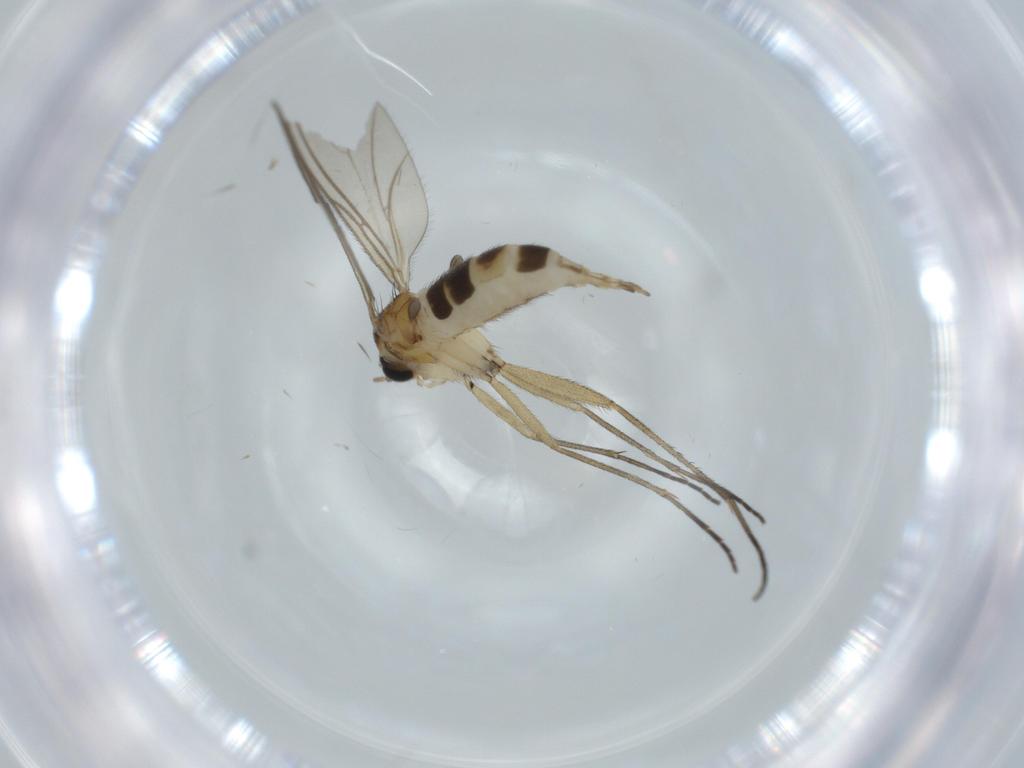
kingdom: Animalia
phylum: Arthropoda
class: Insecta
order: Diptera
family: Sciaridae
